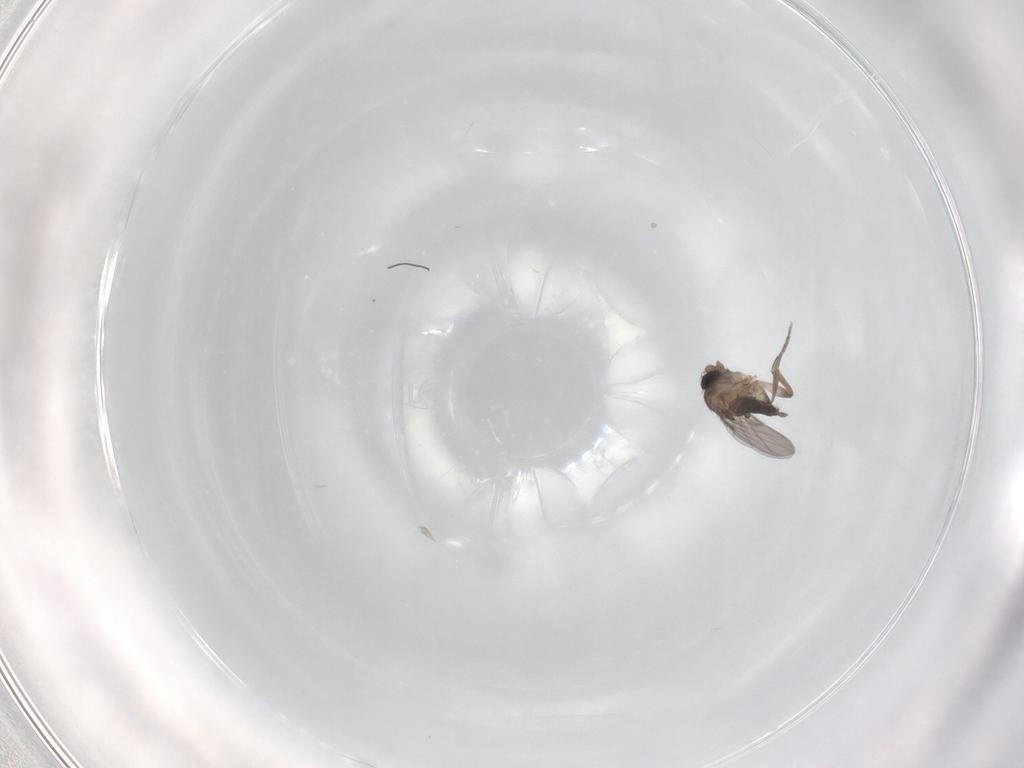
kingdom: Animalia
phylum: Arthropoda
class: Insecta
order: Diptera
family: Phoridae
